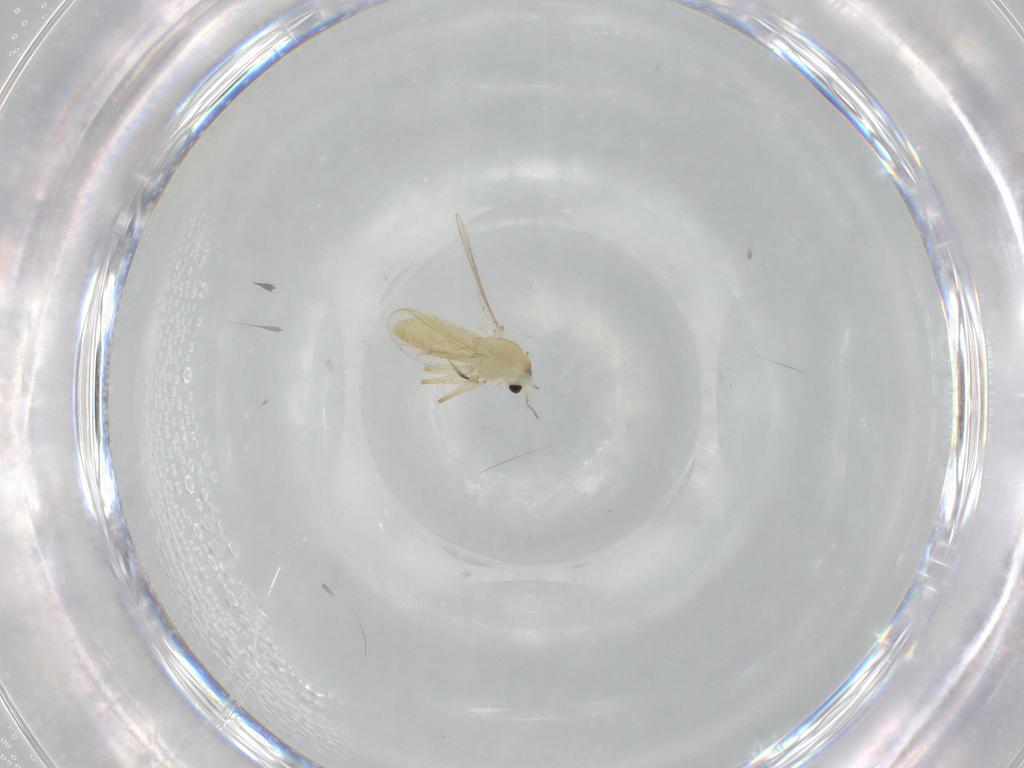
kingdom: Animalia
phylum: Arthropoda
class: Insecta
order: Diptera
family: Chironomidae
